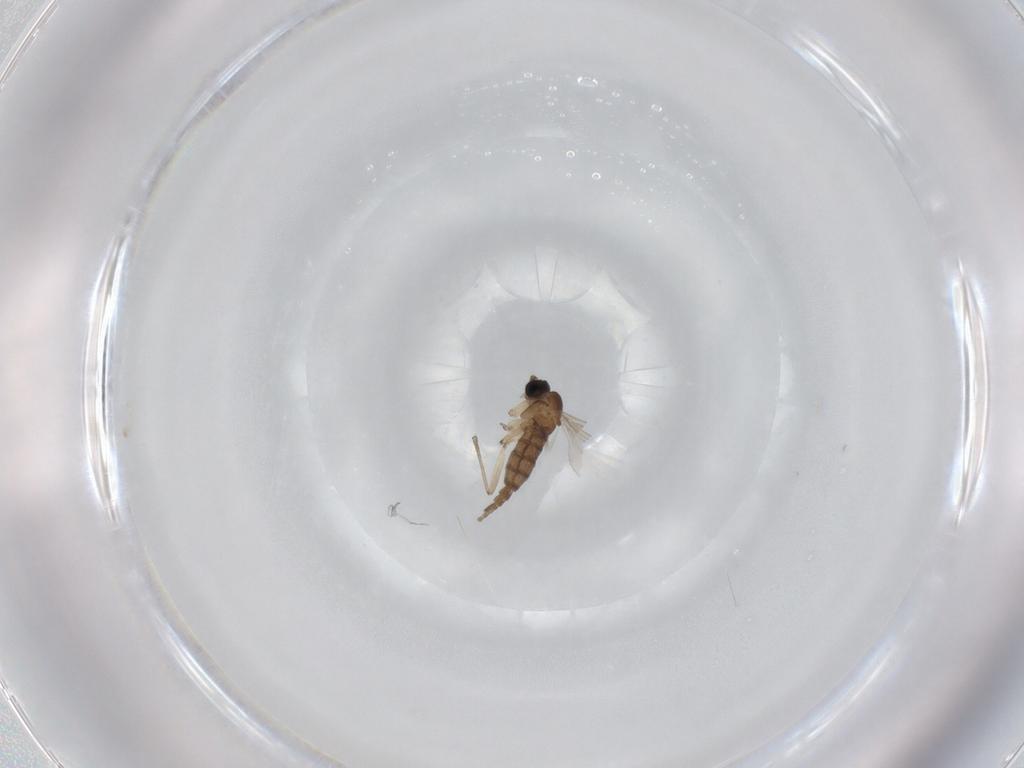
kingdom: Animalia
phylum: Arthropoda
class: Insecta
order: Diptera
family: Sciaridae
